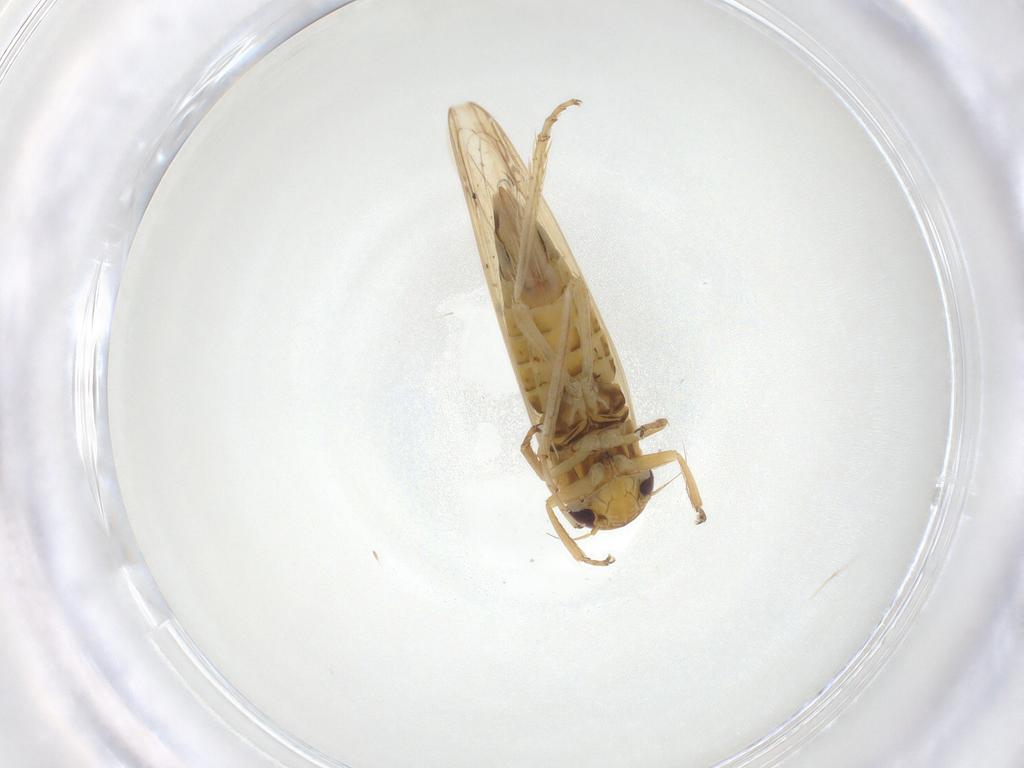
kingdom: Animalia
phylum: Arthropoda
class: Insecta
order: Hemiptera
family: Cicadellidae
